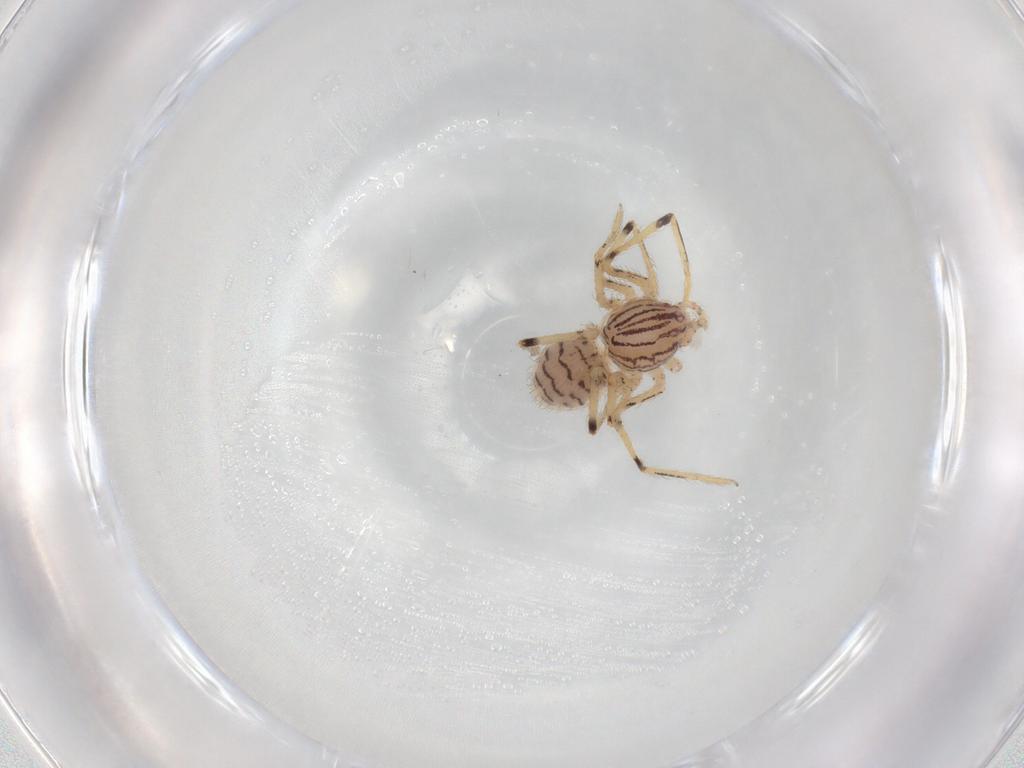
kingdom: Animalia
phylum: Arthropoda
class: Arachnida
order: Araneae
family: Scytodidae
